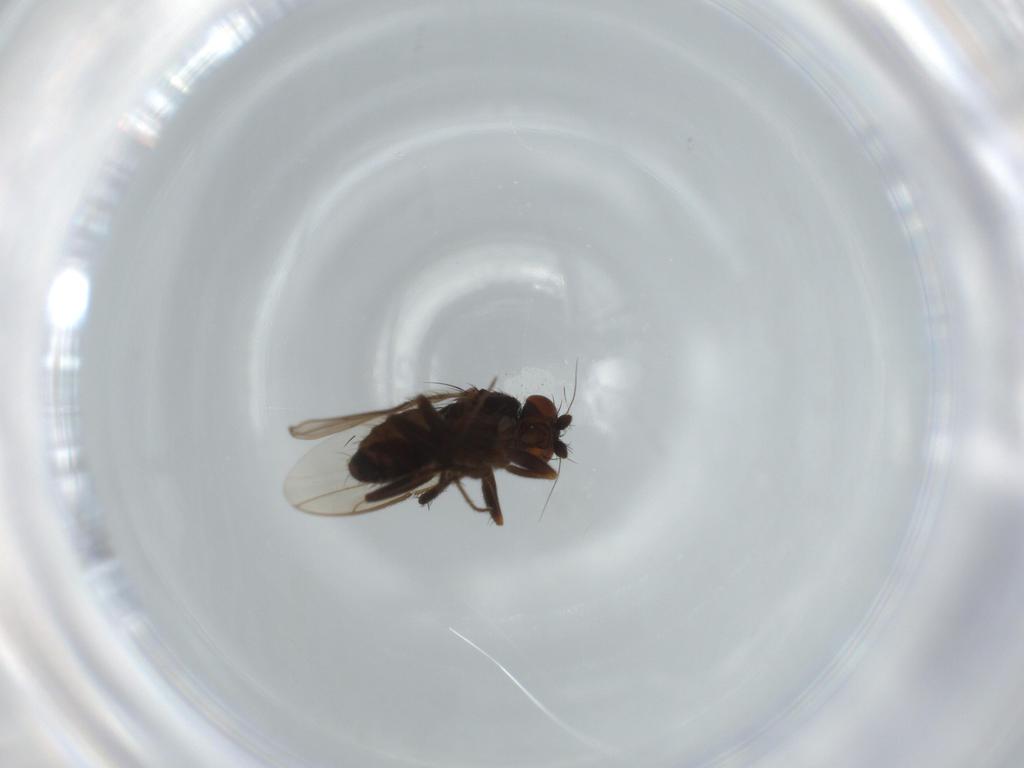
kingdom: Animalia
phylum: Arthropoda
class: Insecta
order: Diptera
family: Sphaeroceridae
